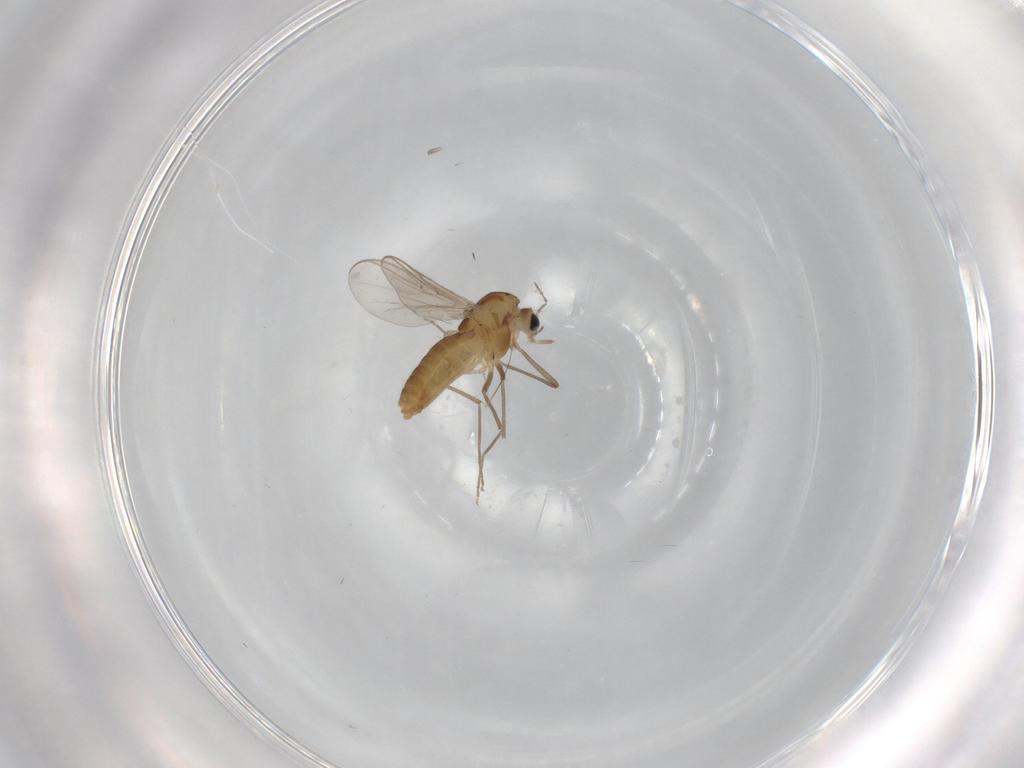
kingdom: Animalia
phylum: Arthropoda
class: Insecta
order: Diptera
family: Chironomidae
